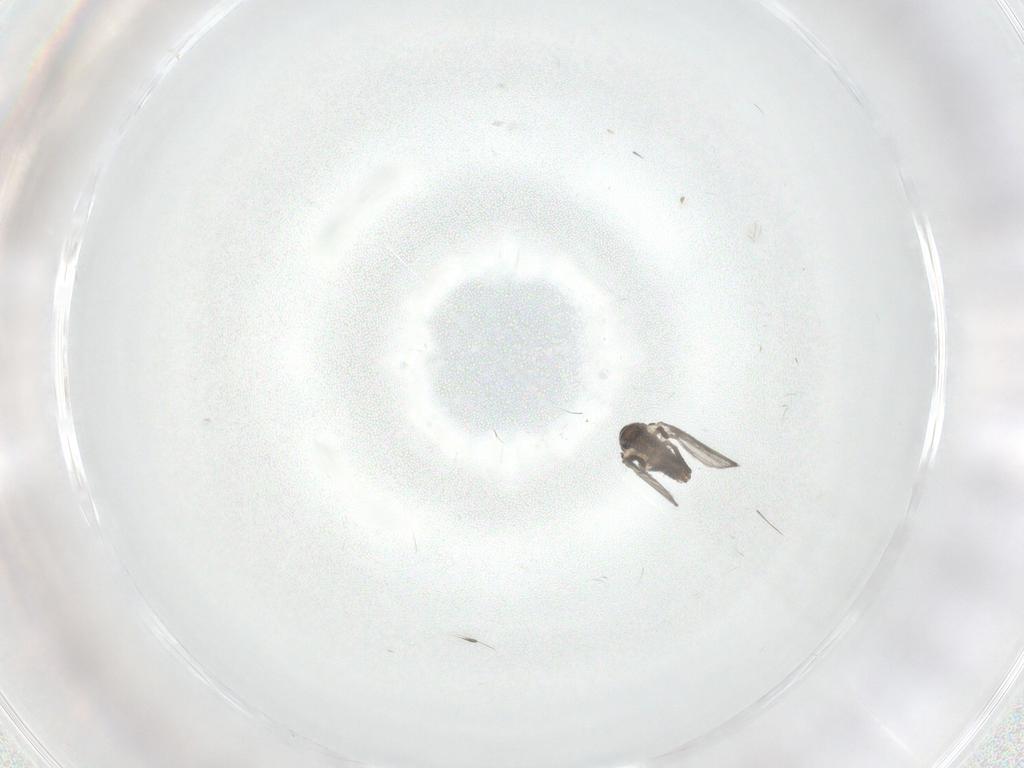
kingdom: Animalia
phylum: Arthropoda
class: Insecta
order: Diptera
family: Psychodidae
